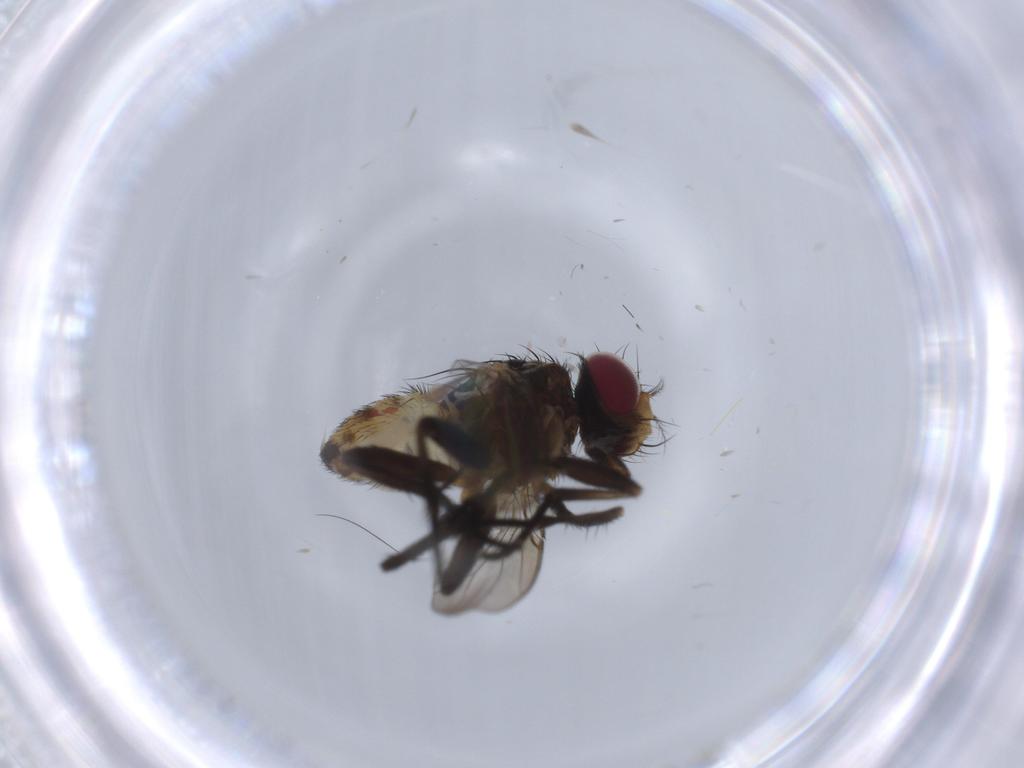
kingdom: Animalia
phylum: Arthropoda
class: Insecta
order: Diptera
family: Anthomyiidae
